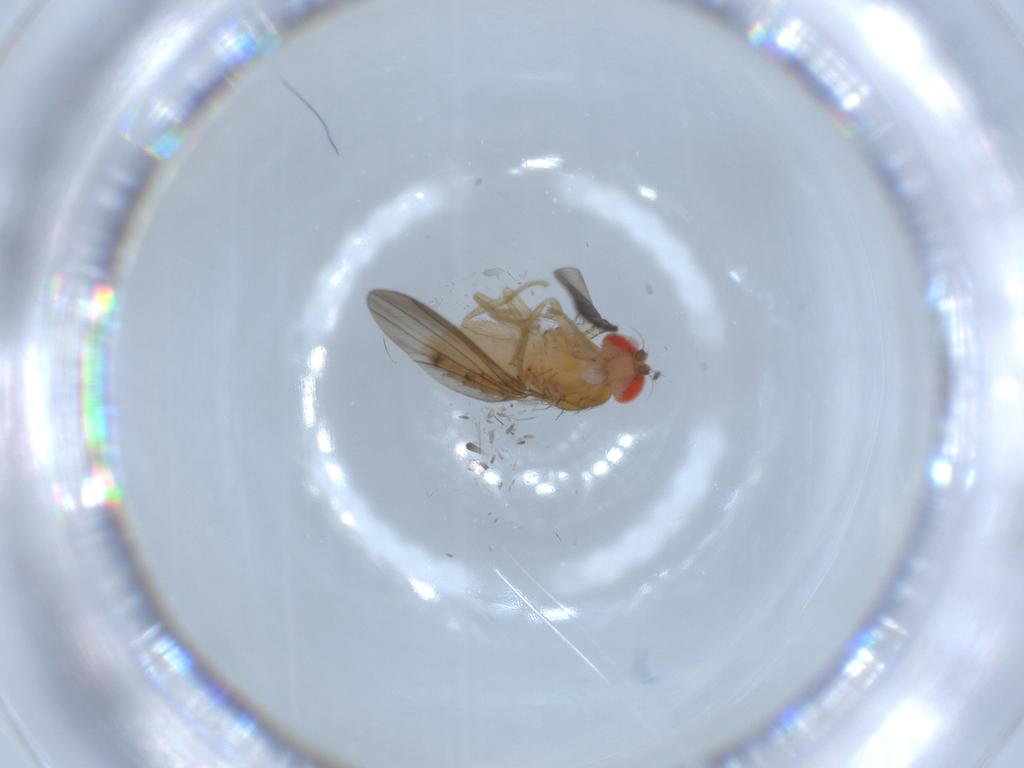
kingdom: Animalia
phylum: Arthropoda
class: Insecta
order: Diptera
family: Drosophilidae
